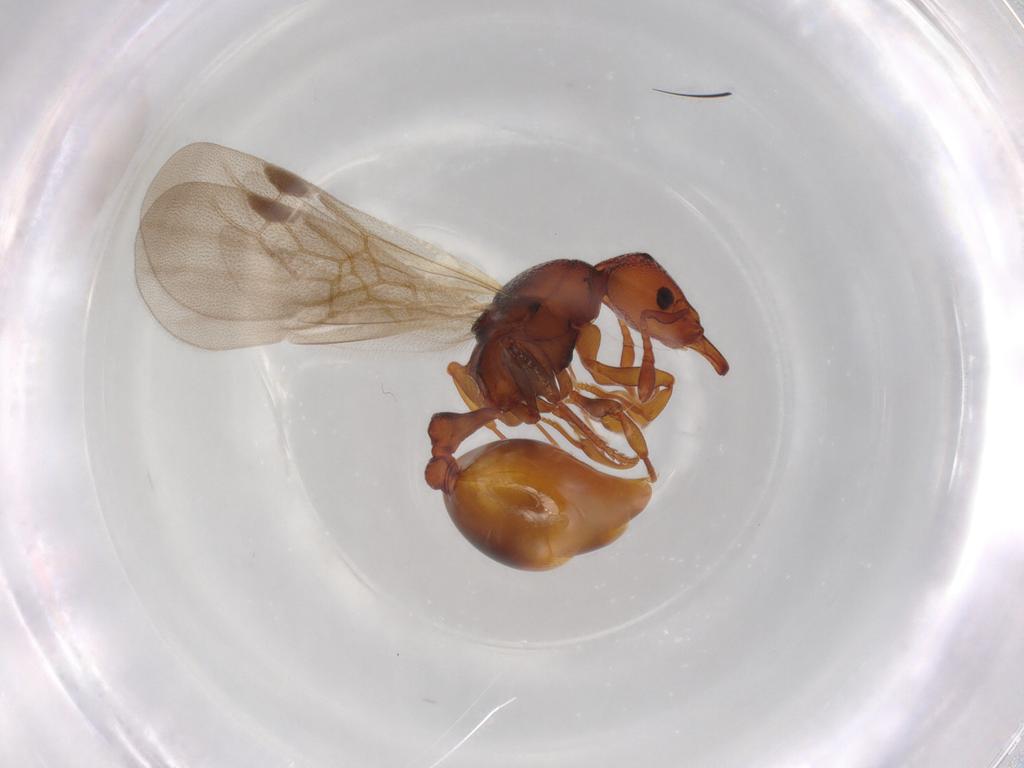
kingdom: Animalia
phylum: Arthropoda
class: Insecta
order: Hymenoptera
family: Formicidae
